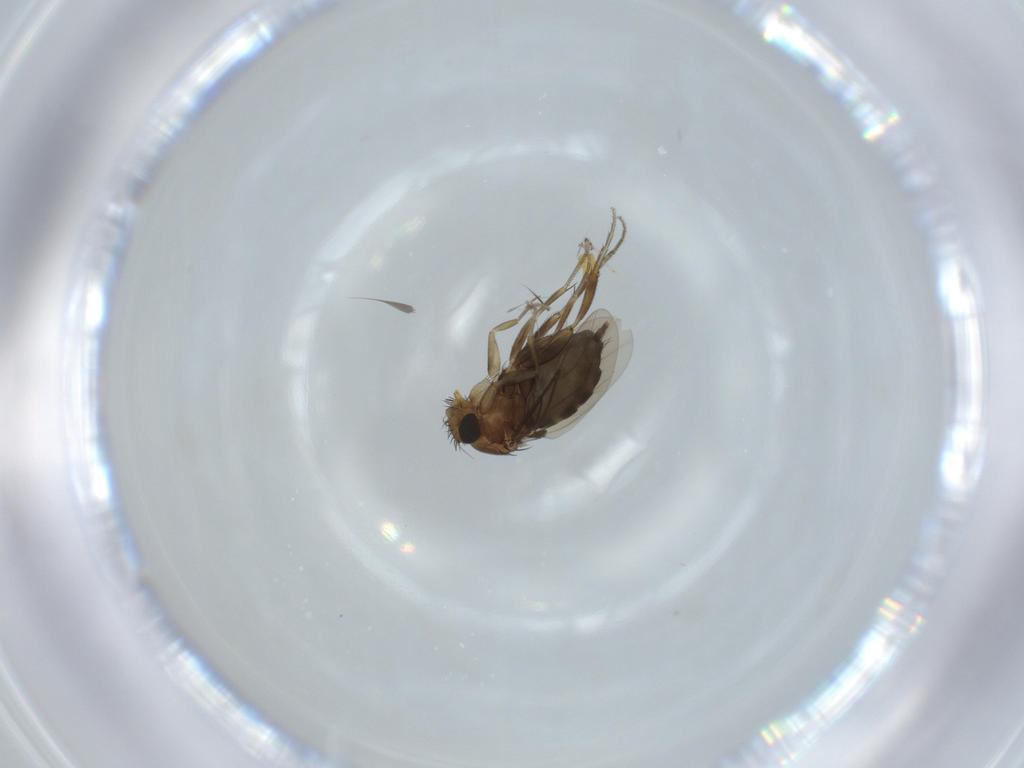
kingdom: Animalia
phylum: Arthropoda
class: Insecta
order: Diptera
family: Phoridae
